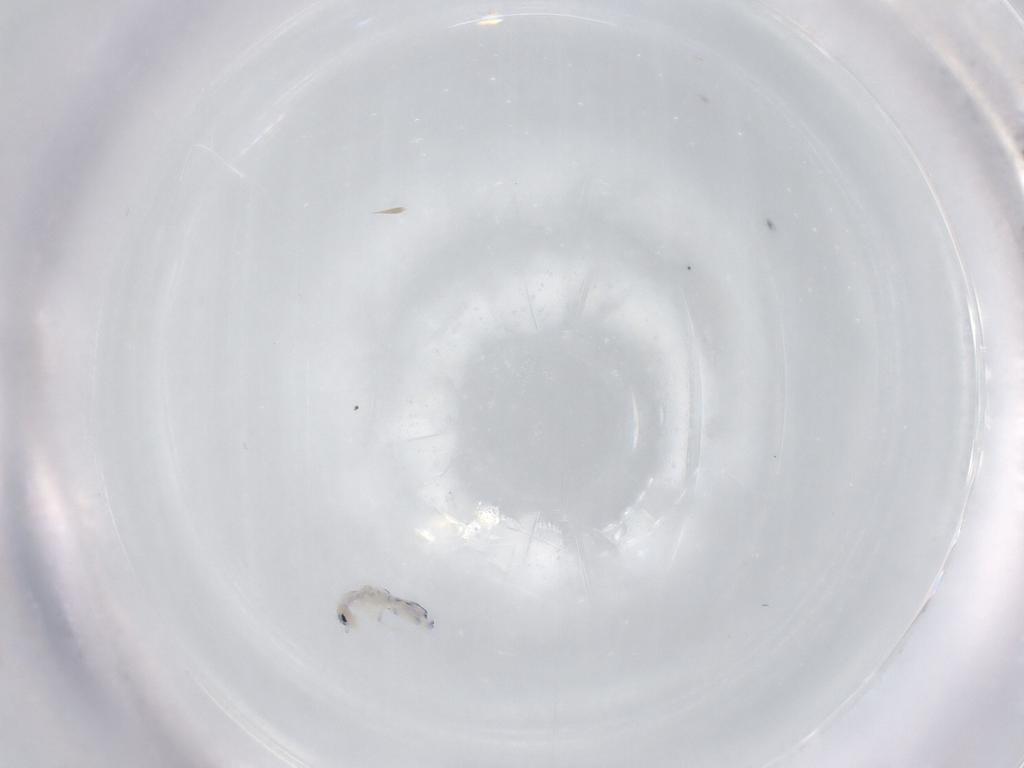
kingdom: Animalia
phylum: Arthropoda
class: Collembola
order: Entomobryomorpha
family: Entomobryidae
